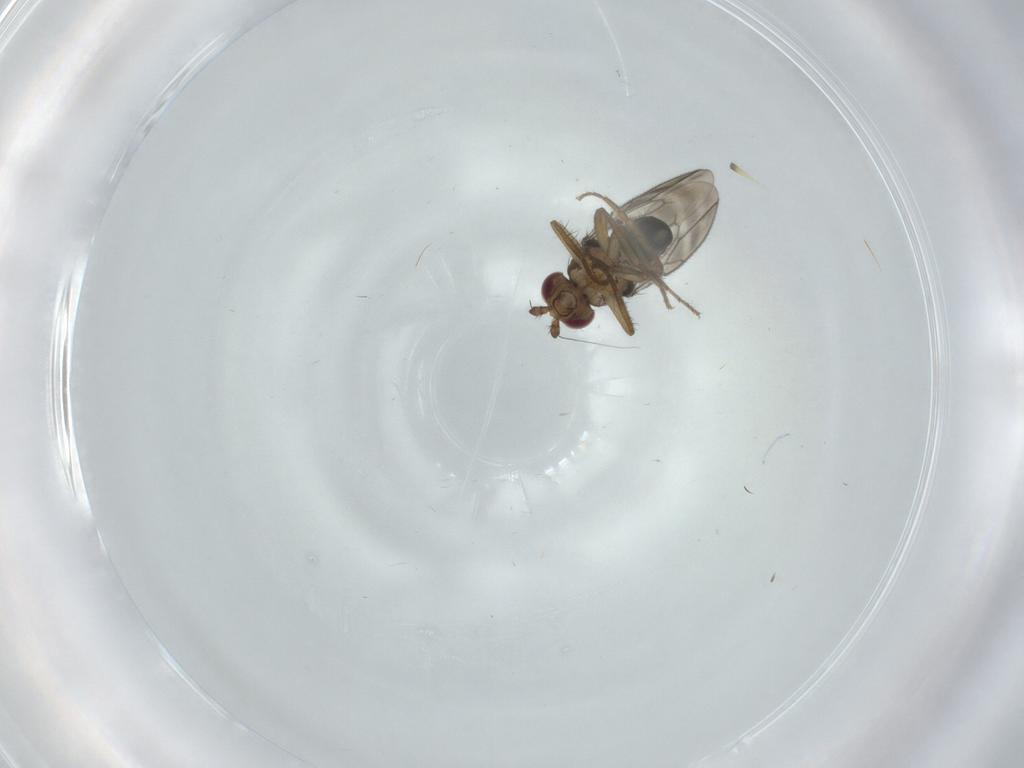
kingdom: Animalia
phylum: Arthropoda
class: Insecta
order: Diptera
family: Sphaeroceridae
